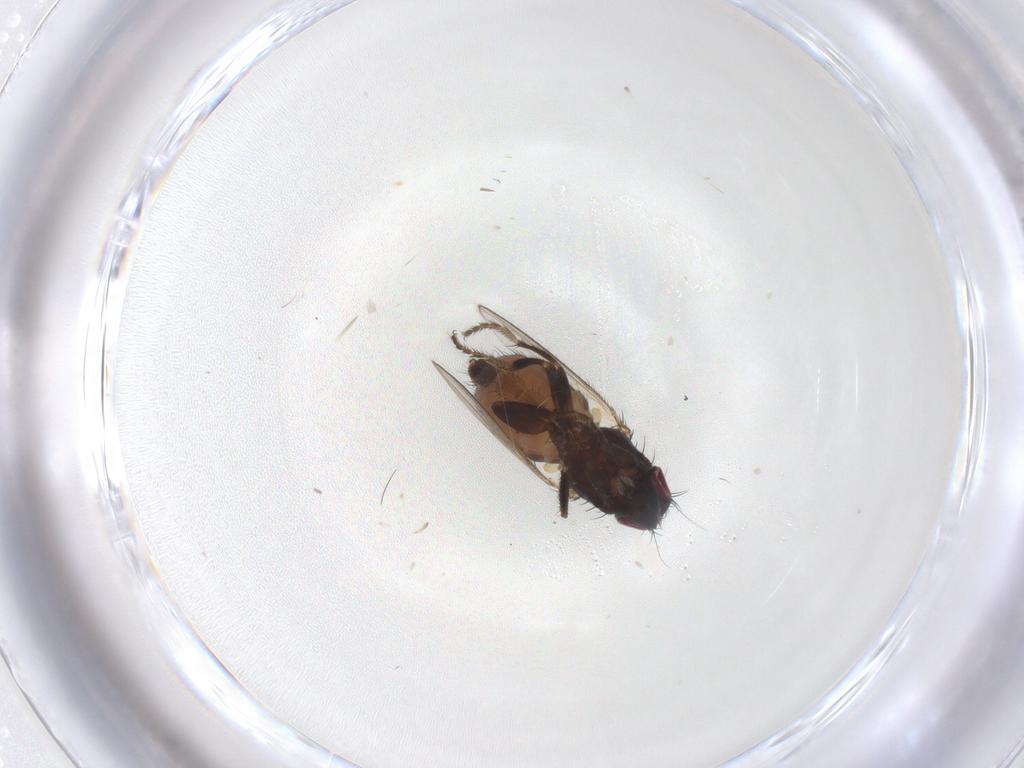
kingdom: Animalia
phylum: Arthropoda
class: Insecta
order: Diptera
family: Milichiidae
